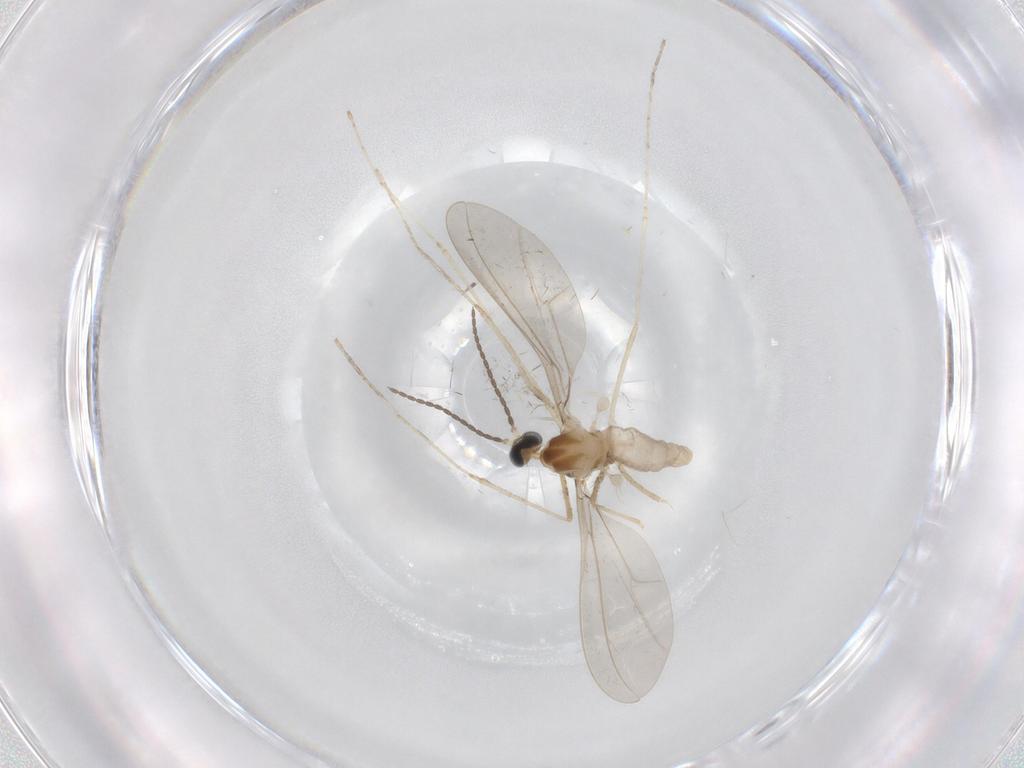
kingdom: Animalia
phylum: Arthropoda
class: Insecta
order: Diptera
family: Cecidomyiidae
